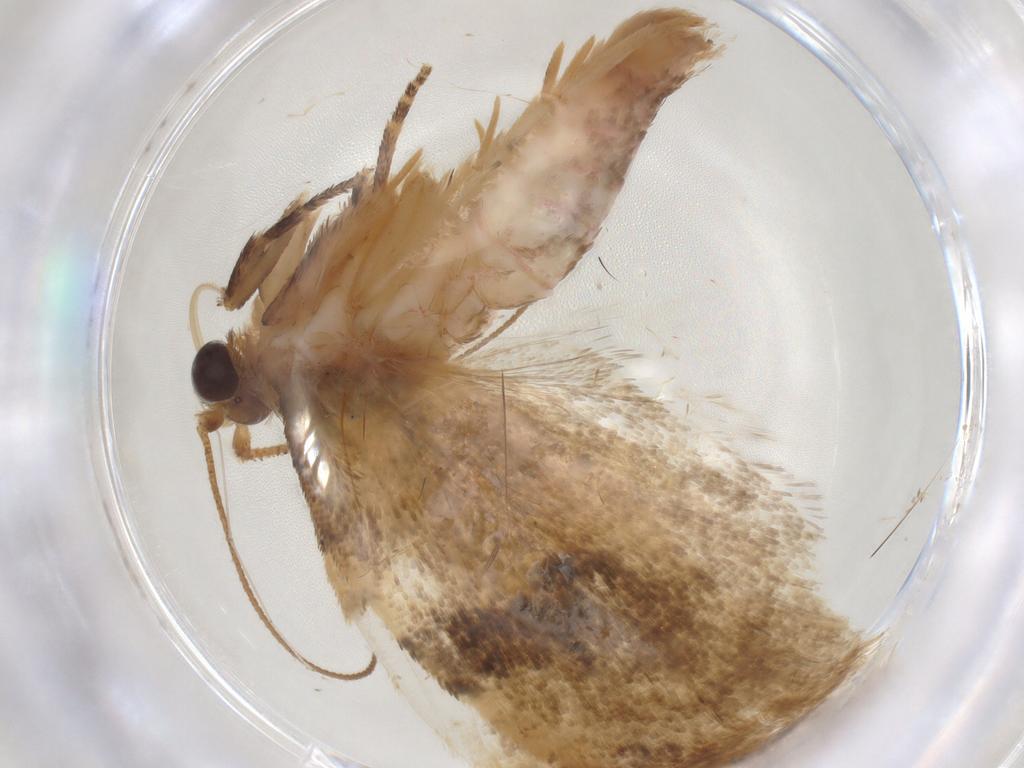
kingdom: Animalia
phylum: Arthropoda
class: Insecta
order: Lepidoptera
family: Tortricidae
